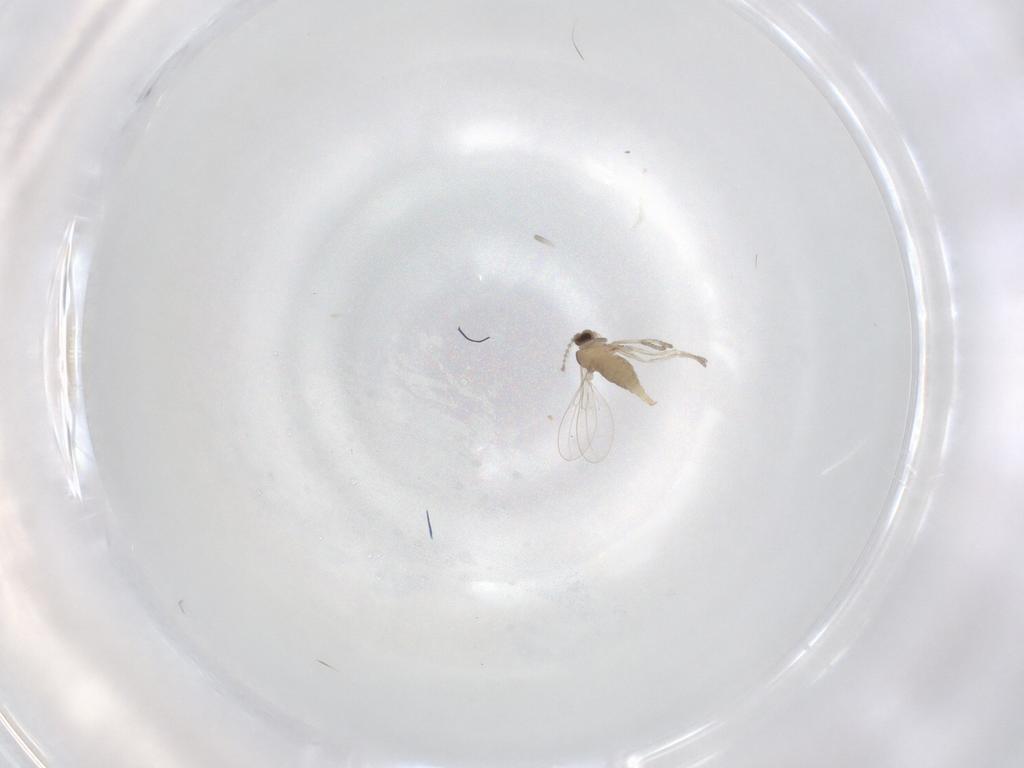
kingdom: Animalia
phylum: Arthropoda
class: Insecta
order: Diptera
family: Cecidomyiidae
